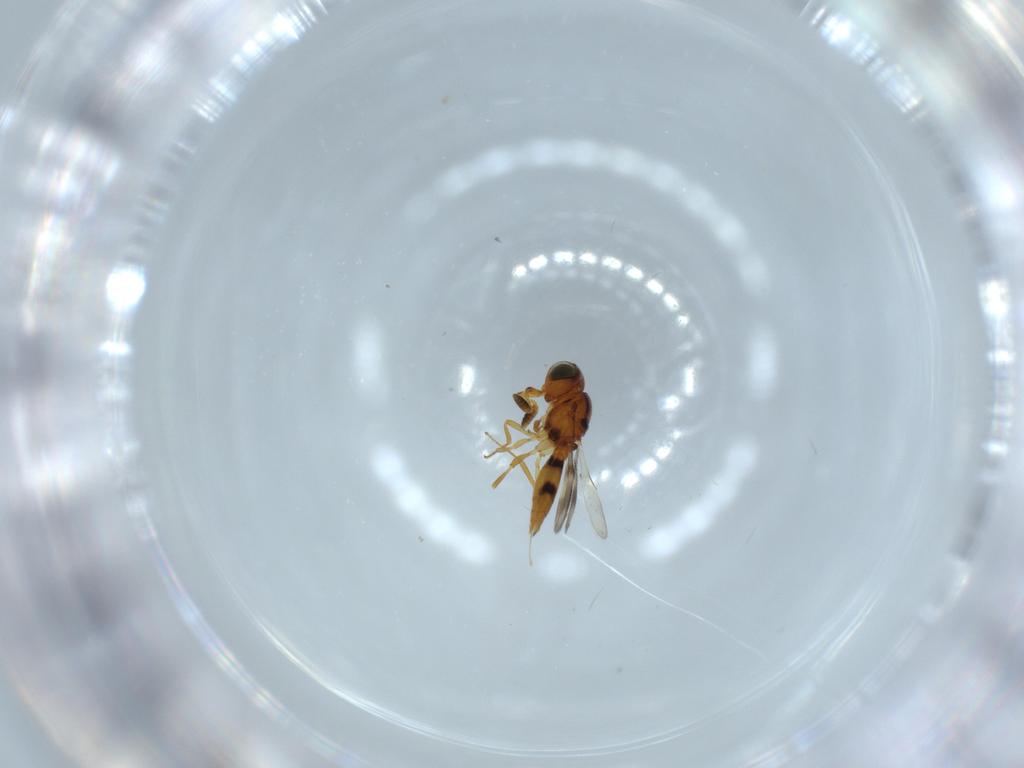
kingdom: Animalia
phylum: Arthropoda
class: Insecta
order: Hymenoptera
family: Scelionidae
